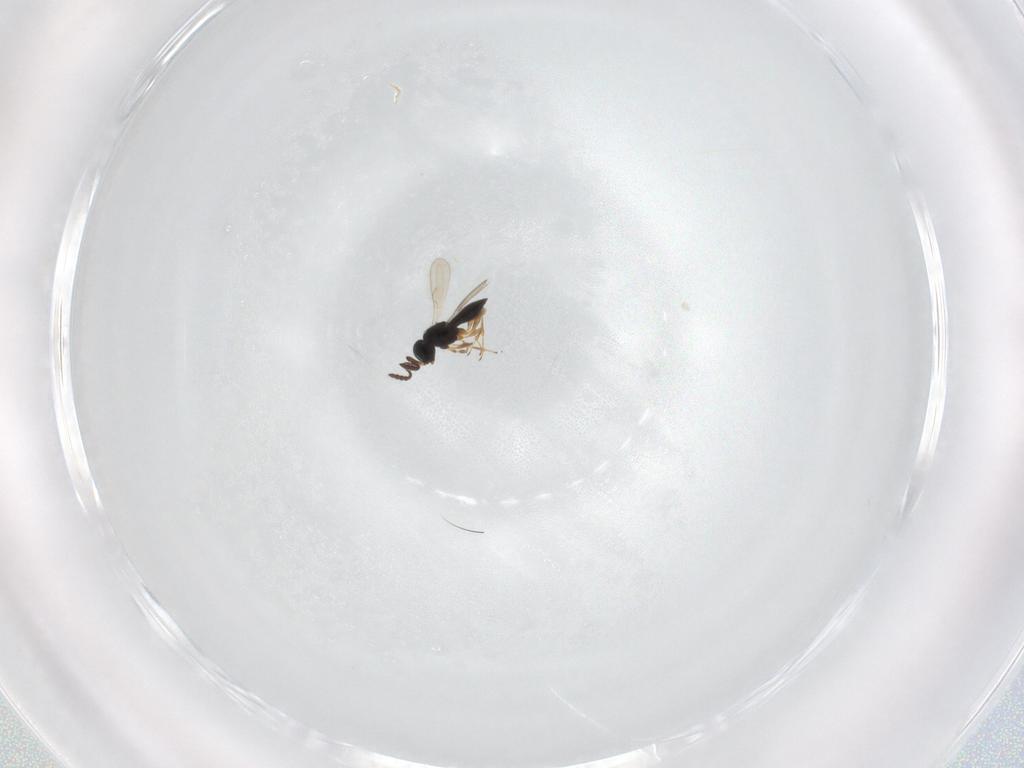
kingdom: Animalia
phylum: Arthropoda
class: Insecta
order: Hymenoptera
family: Scelionidae
